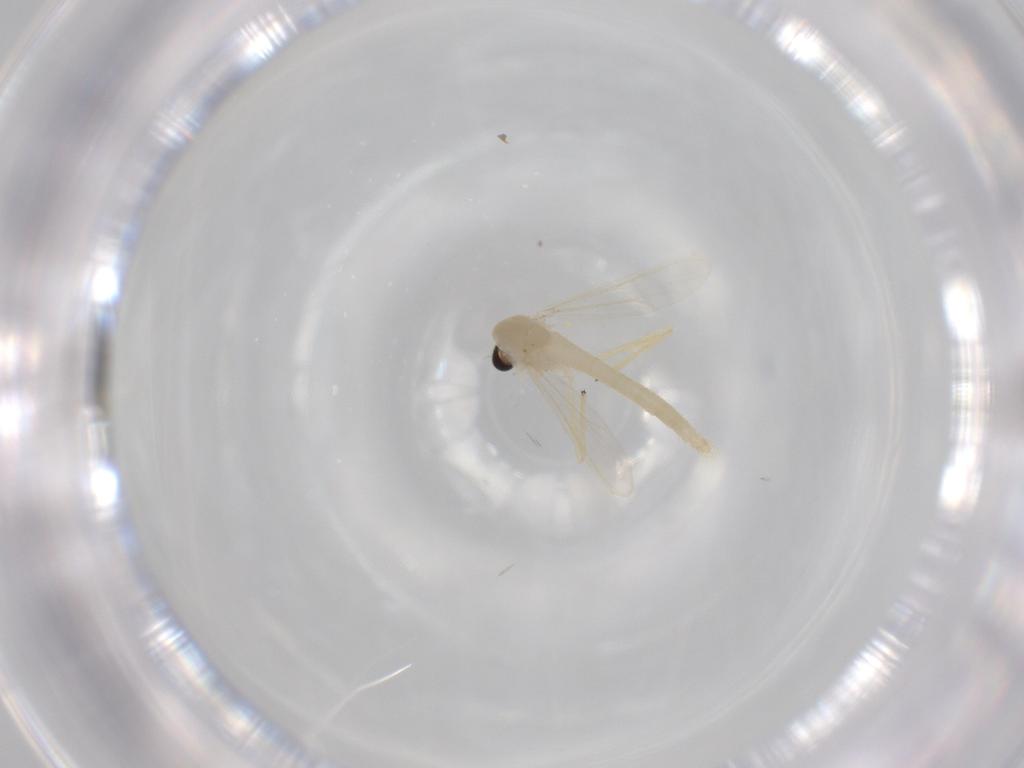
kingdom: Animalia
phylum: Arthropoda
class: Insecta
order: Diptera
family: Chironomidae
